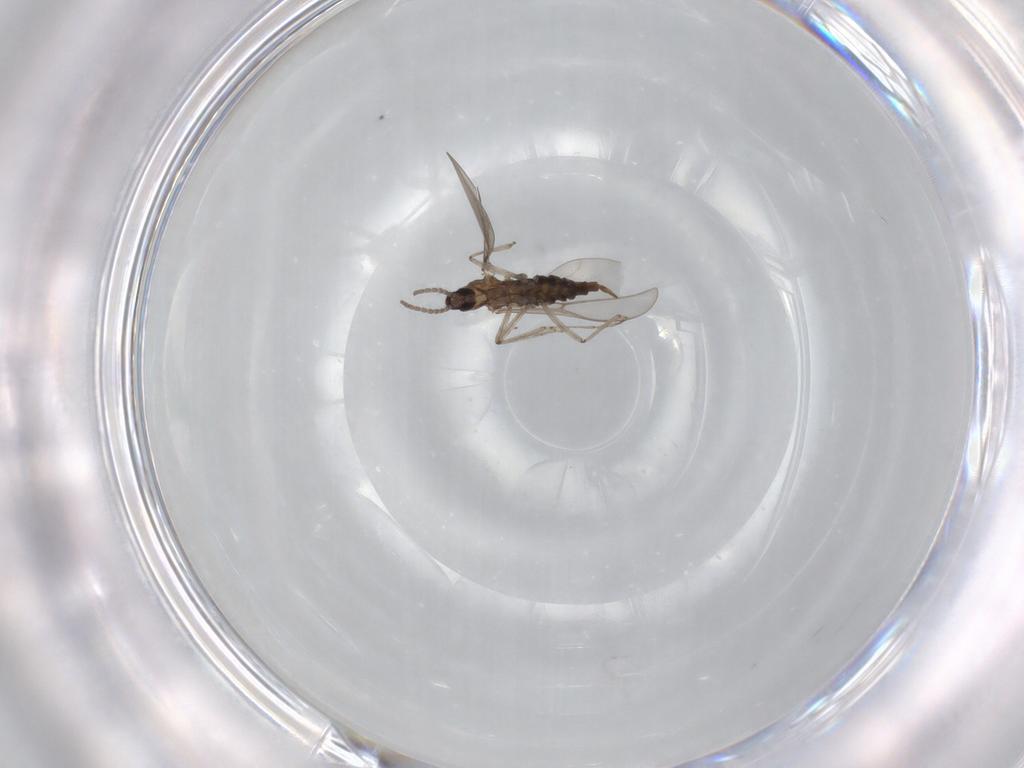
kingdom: Animalia
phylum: Arthropoda
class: Insecta
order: Diptera
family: Cecidomyiidae
